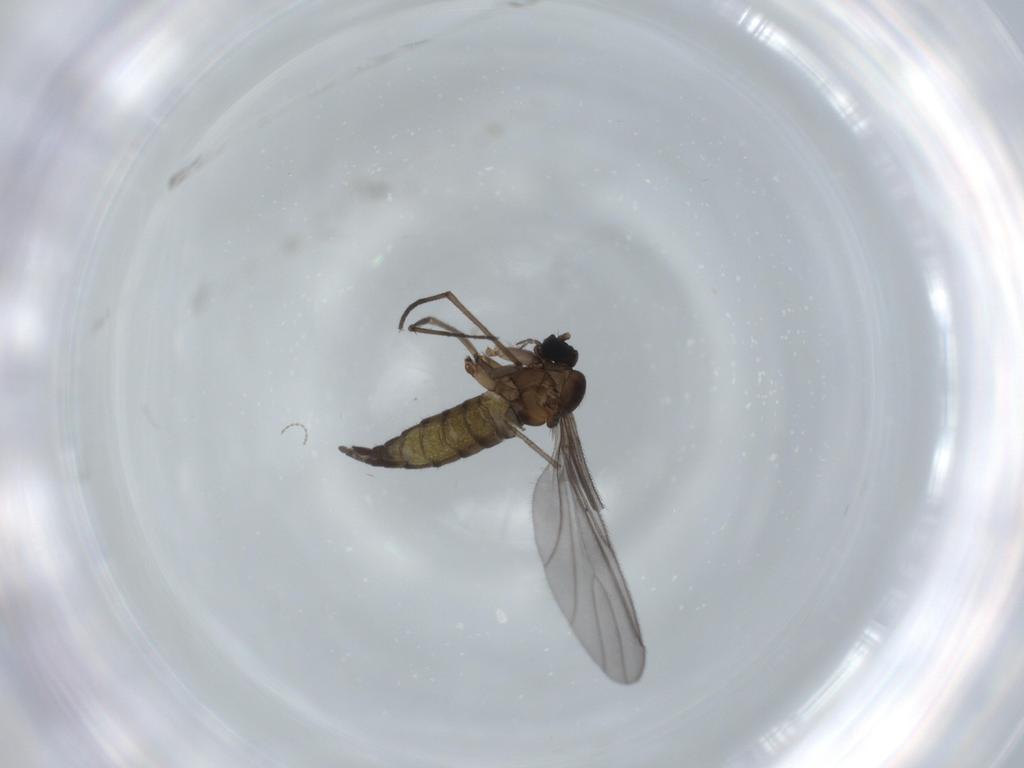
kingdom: Animalia
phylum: Arthropoda
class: Insecta
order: Diptera
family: Sciaridae
